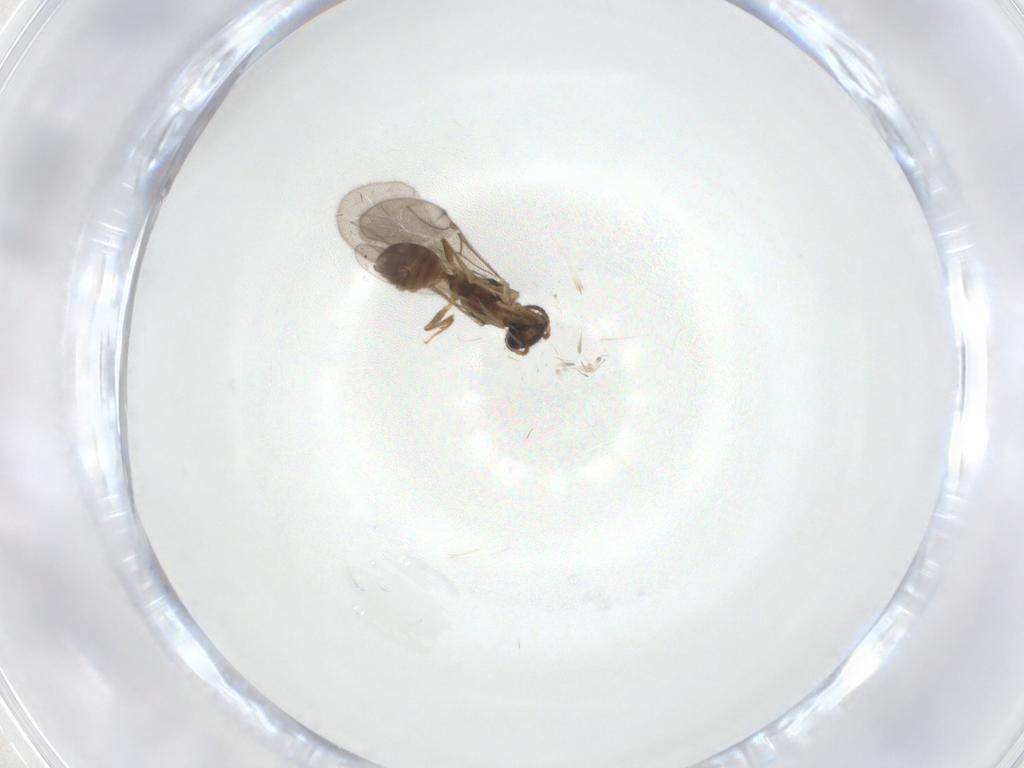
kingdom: Animalia
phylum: Arthropoda
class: Insecta
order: Hymenoptera
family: Bethylidae
